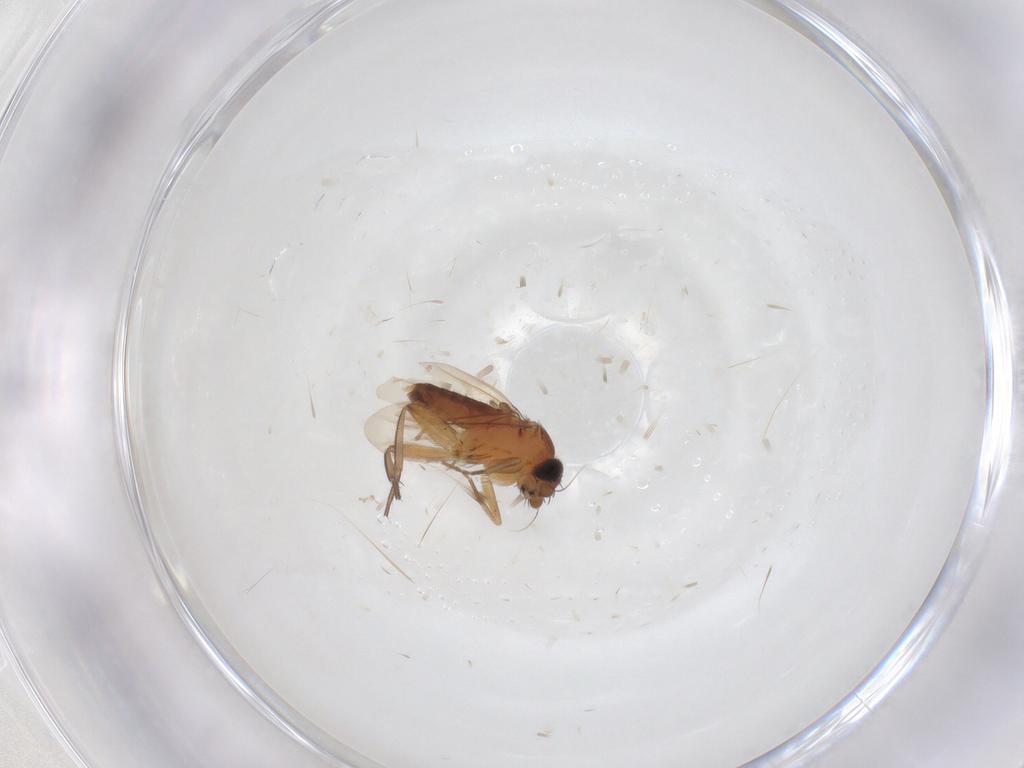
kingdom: Animalia
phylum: Arthropoda
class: Insecta
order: Diptera
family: Phoridae
